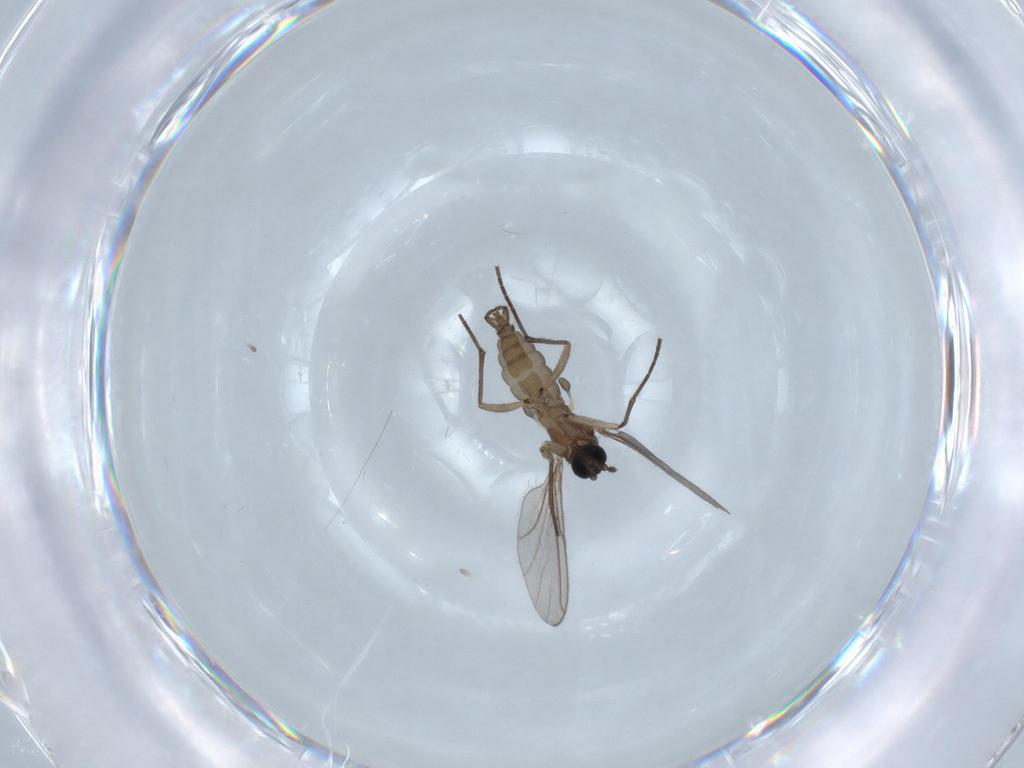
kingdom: Animalia
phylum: Arthropoda
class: Insecta
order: Diptera
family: Sciaridae
